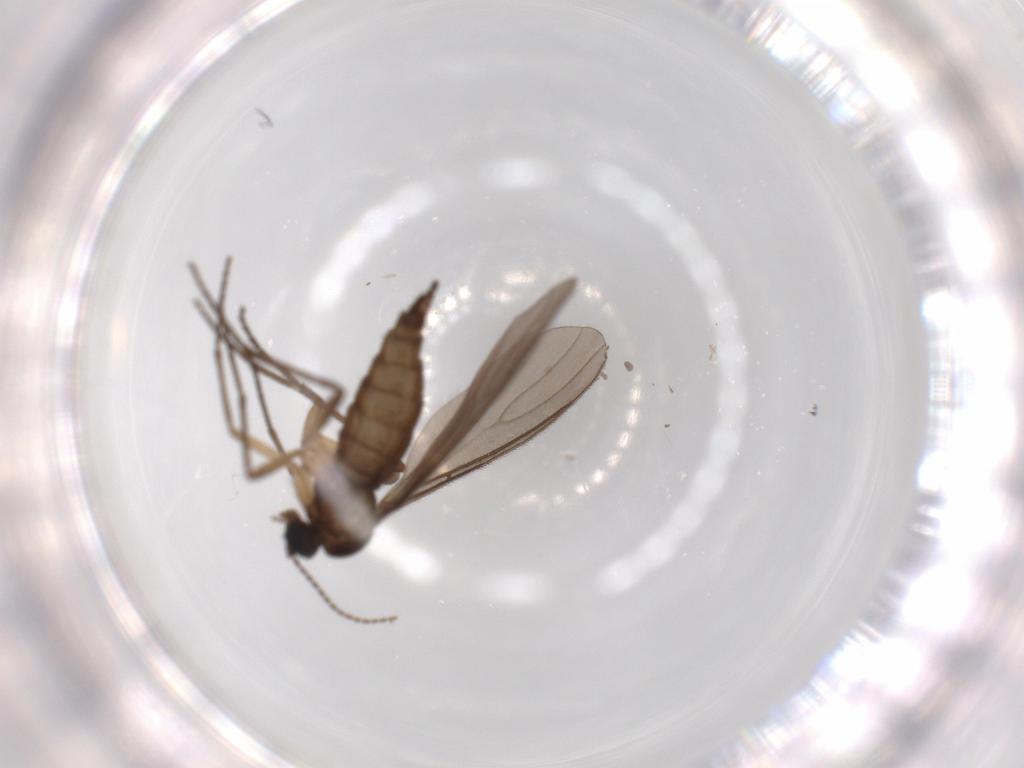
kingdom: Animalia
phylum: Arthropoda
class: Insecta
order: Diptera
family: Sciaridae
